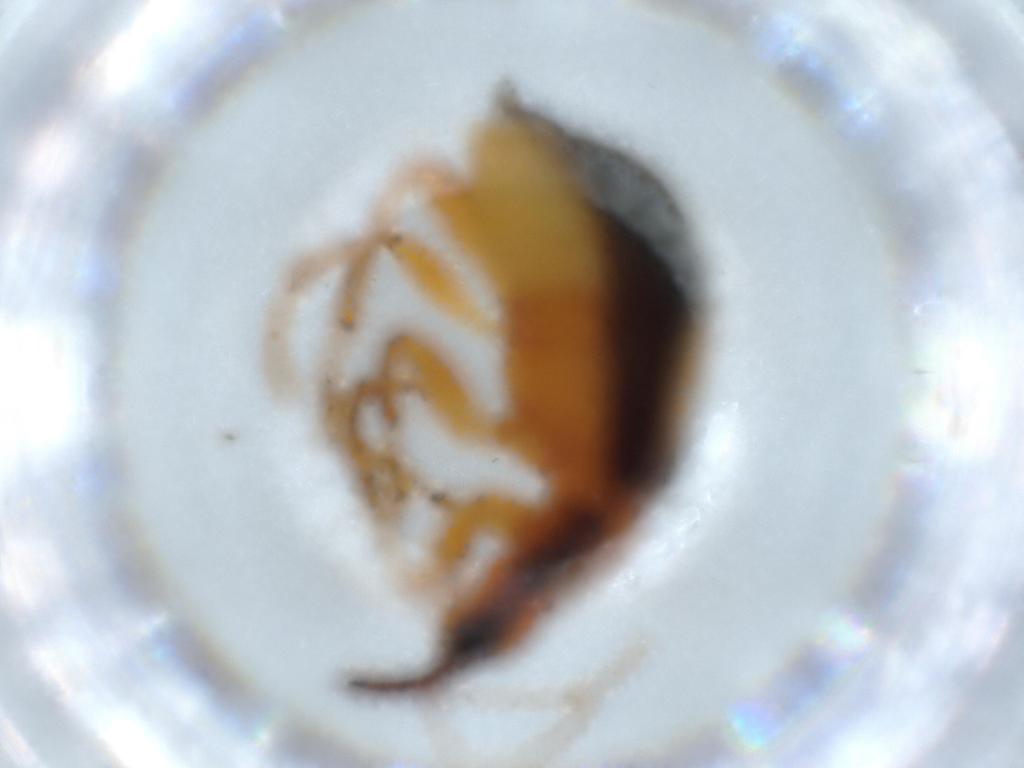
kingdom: Animalia
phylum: Arthropoda
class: Insecta
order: Coleoptera
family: Attelabidae
